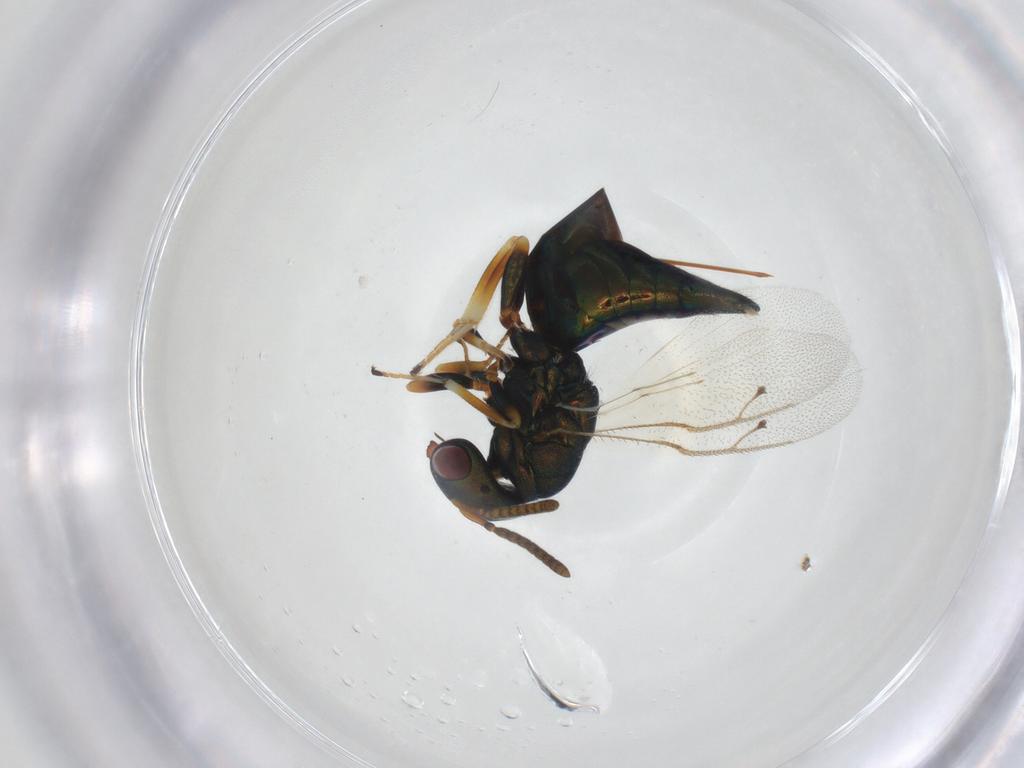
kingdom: Animalia
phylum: Arthropoda
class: Insecta
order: Hymenoptera
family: Pteromalidae
